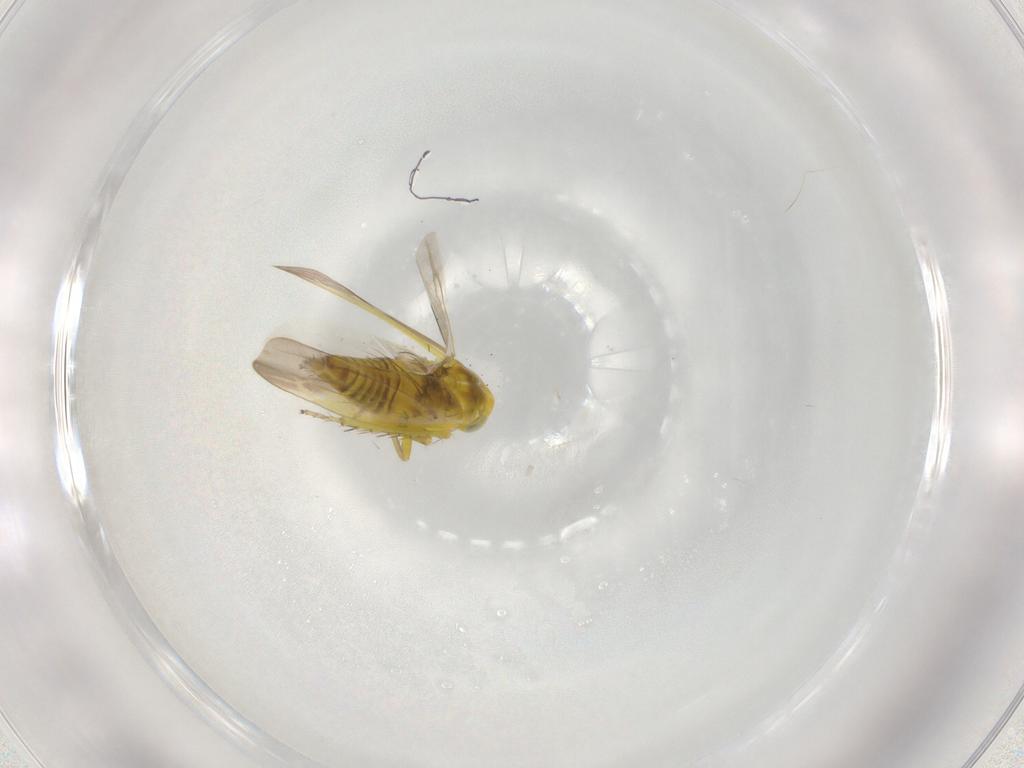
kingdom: Animalia
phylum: Arthropoda
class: Insecta
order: Hemiptera
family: Cicadellidae
